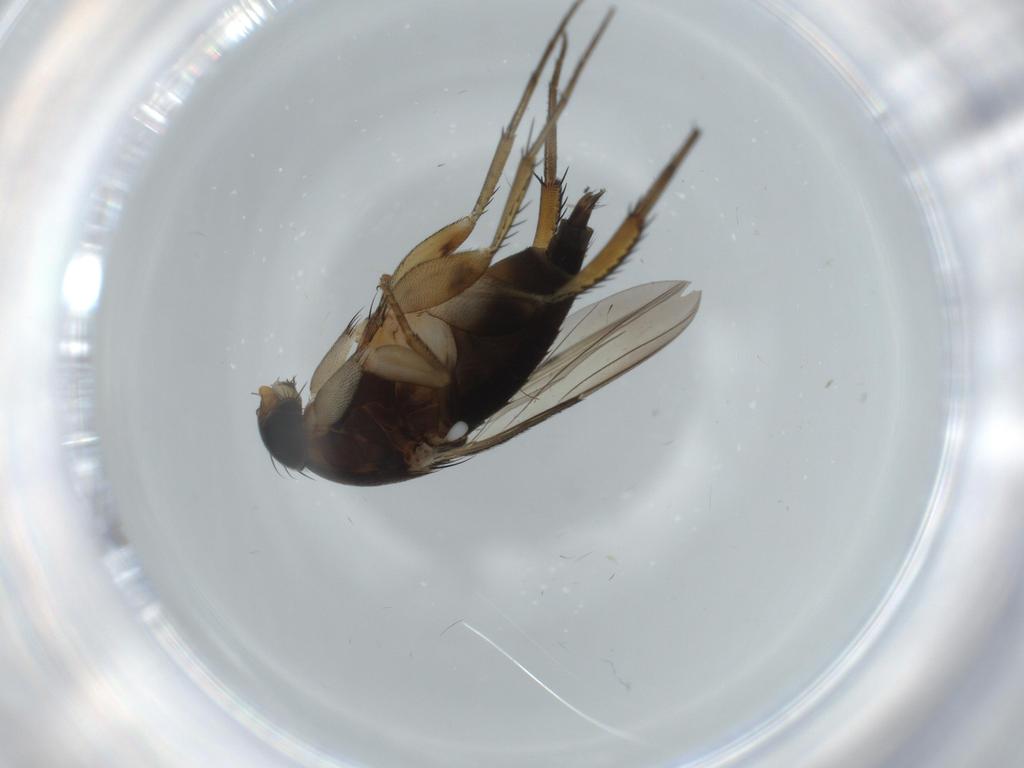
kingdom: Animalia
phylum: Arthropoda
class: Insecta
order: Diptera
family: Phoridae
